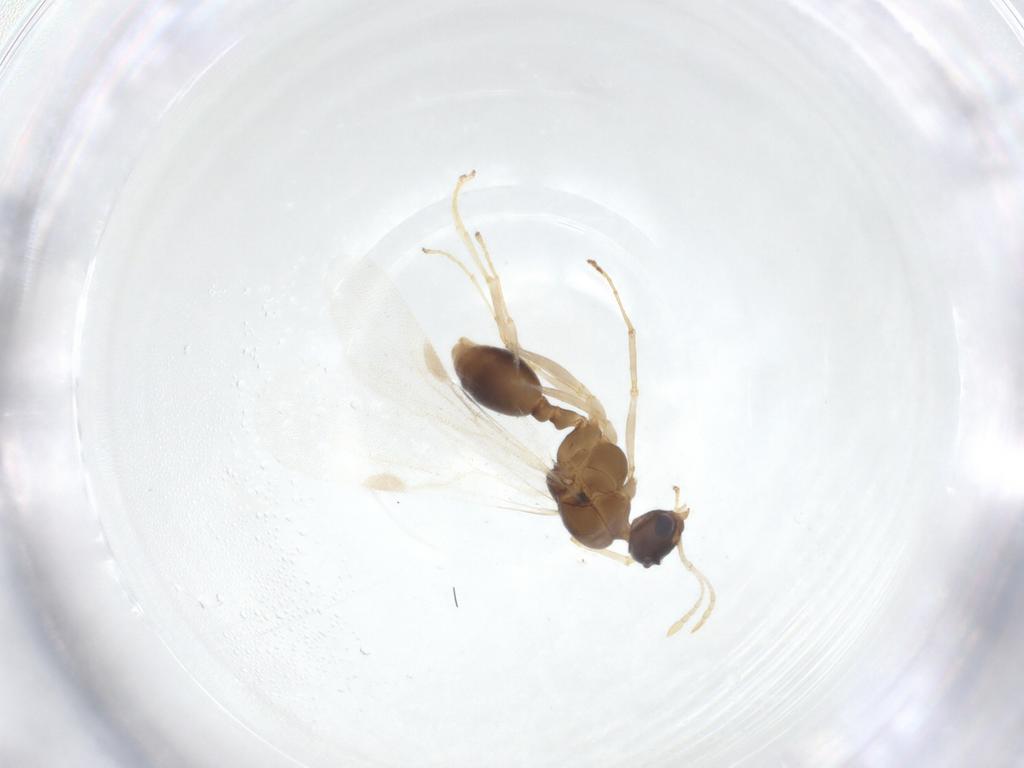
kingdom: Animalia
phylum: Arthropoda
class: Insecta
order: Hymenoptera
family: Formicidae
